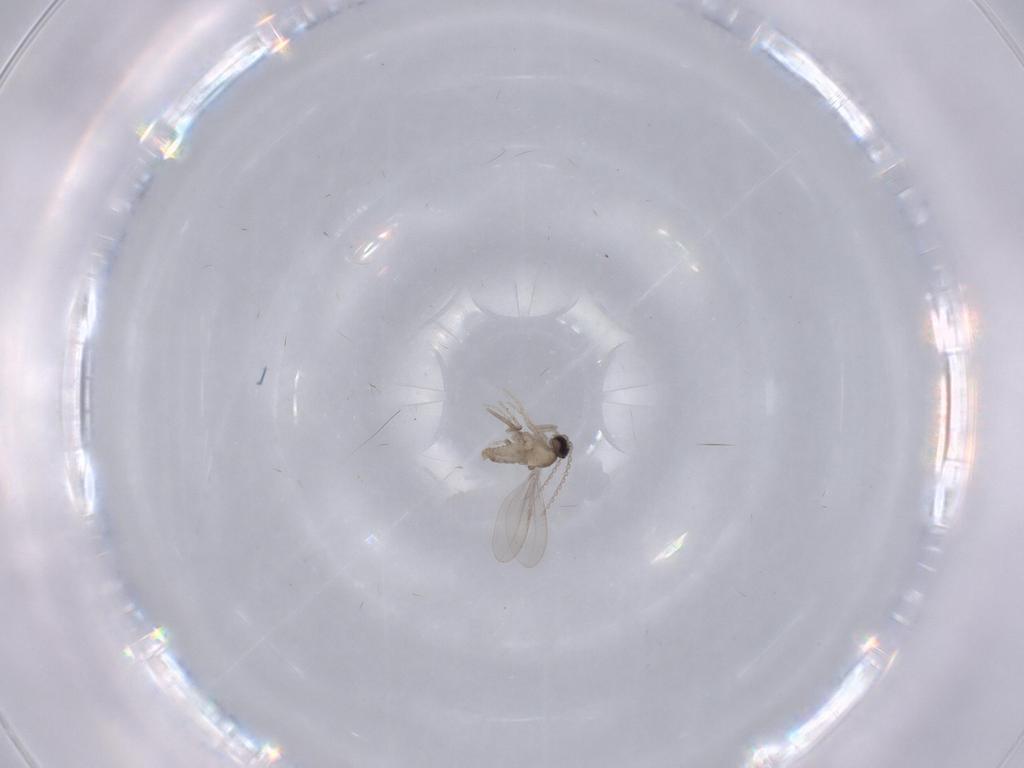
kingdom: Animalia
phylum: Arthropoda
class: Insecta
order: Diptera
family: Cecidomyiidae
